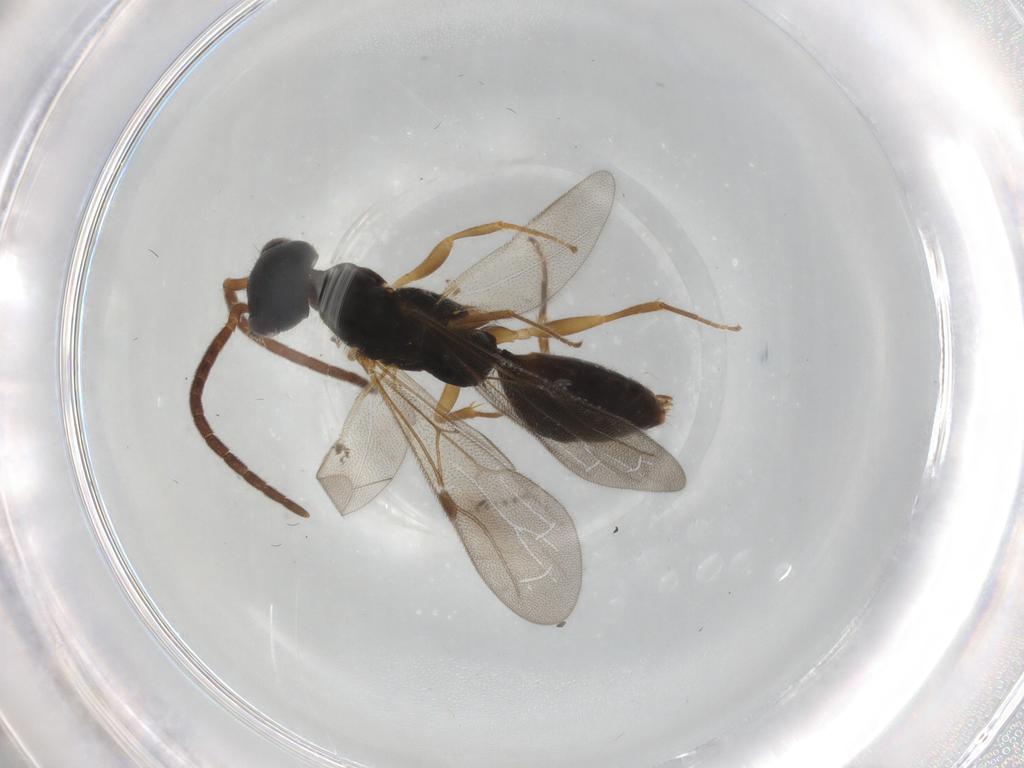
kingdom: Animalia
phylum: Arthropoda
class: Insecta
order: Hymenoptera
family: Bethylidae
